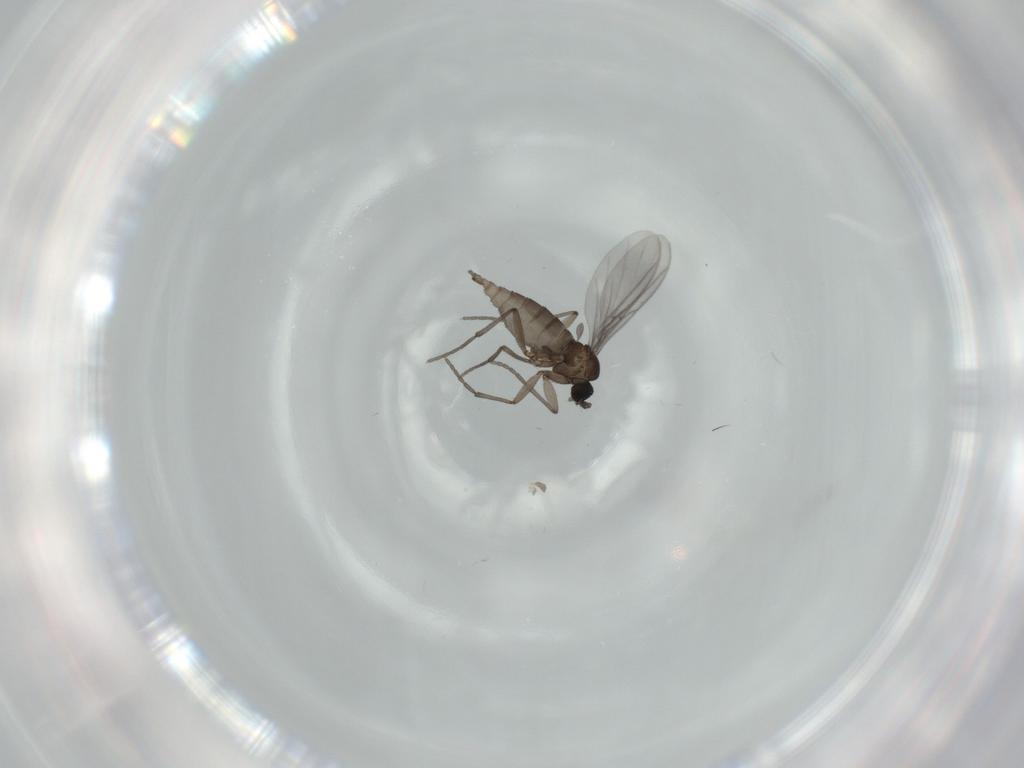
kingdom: Animalia
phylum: Arthropoda
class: Insecta
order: Diptera
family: Sciaridae
